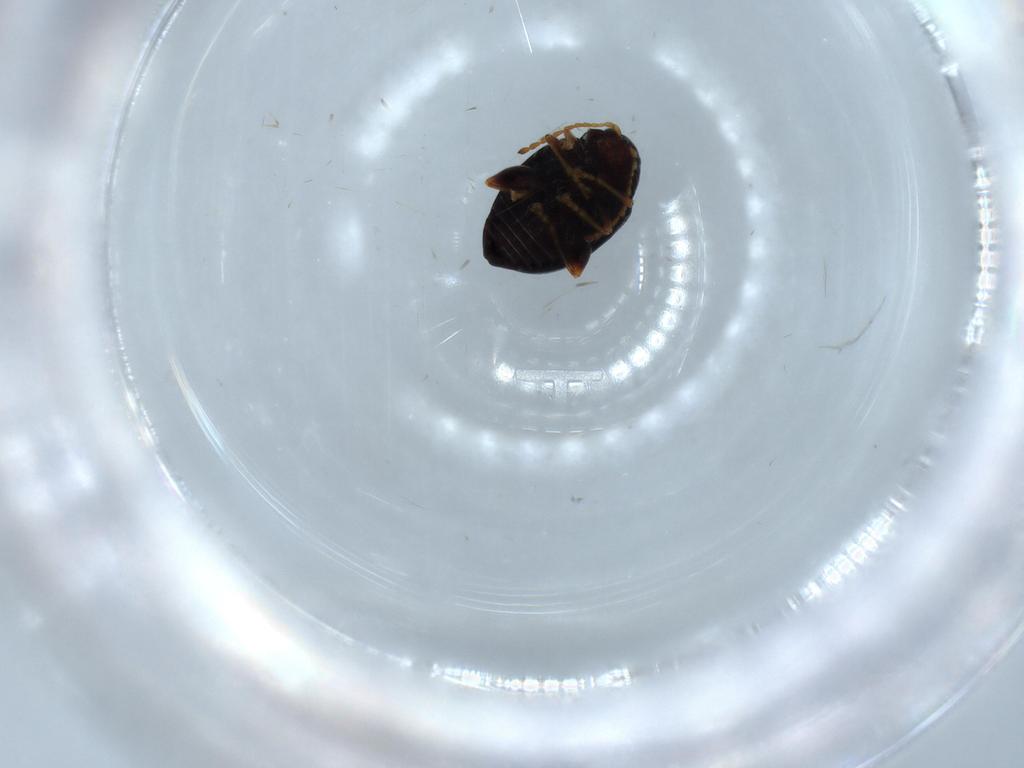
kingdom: Animalia
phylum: Arthropoda
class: Insecta
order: Coleoptera
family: Chrysomelidae
